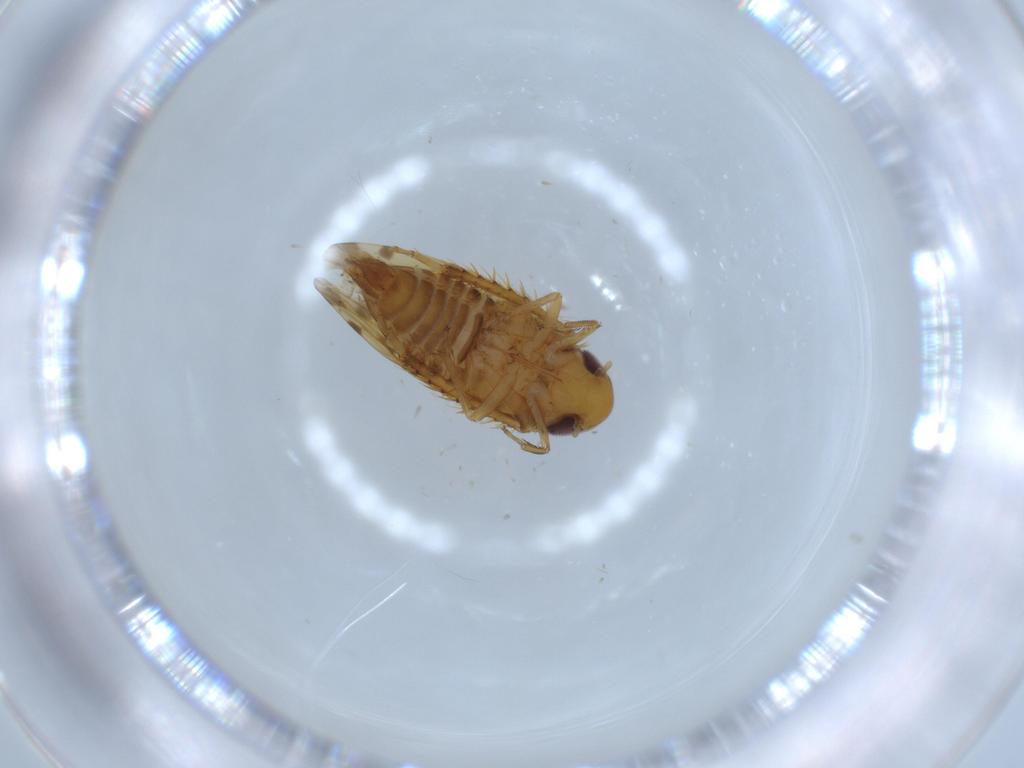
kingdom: Animalia
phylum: Arthropoda
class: Insecta
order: Hemiptera
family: Cicadellidae
